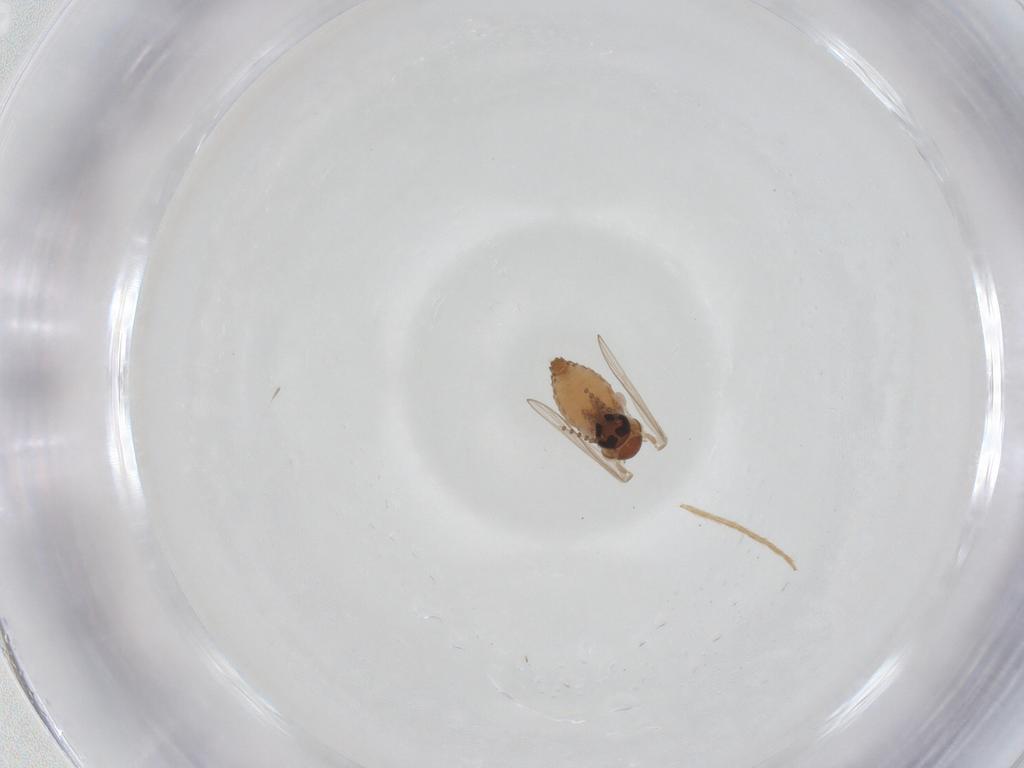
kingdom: Animalia
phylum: Arthropoda
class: Insecta
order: Diptera
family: Psychodidae
